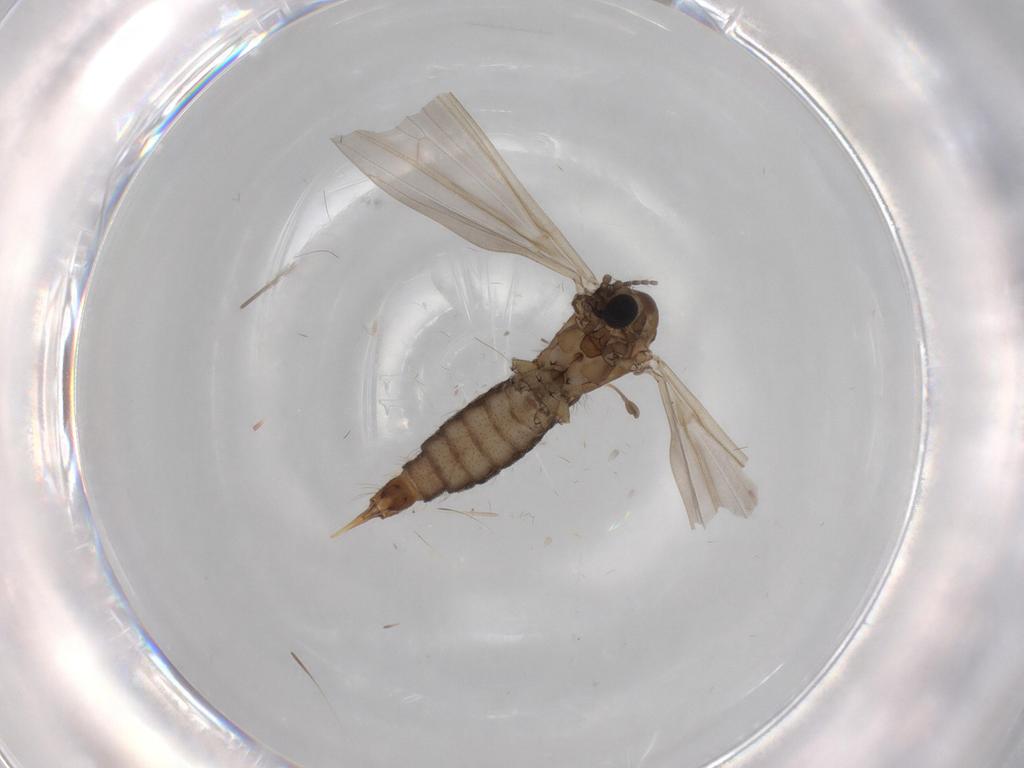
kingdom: Animalia
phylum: Arthropoda
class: Insecta
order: Diptera
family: Limoniidae
